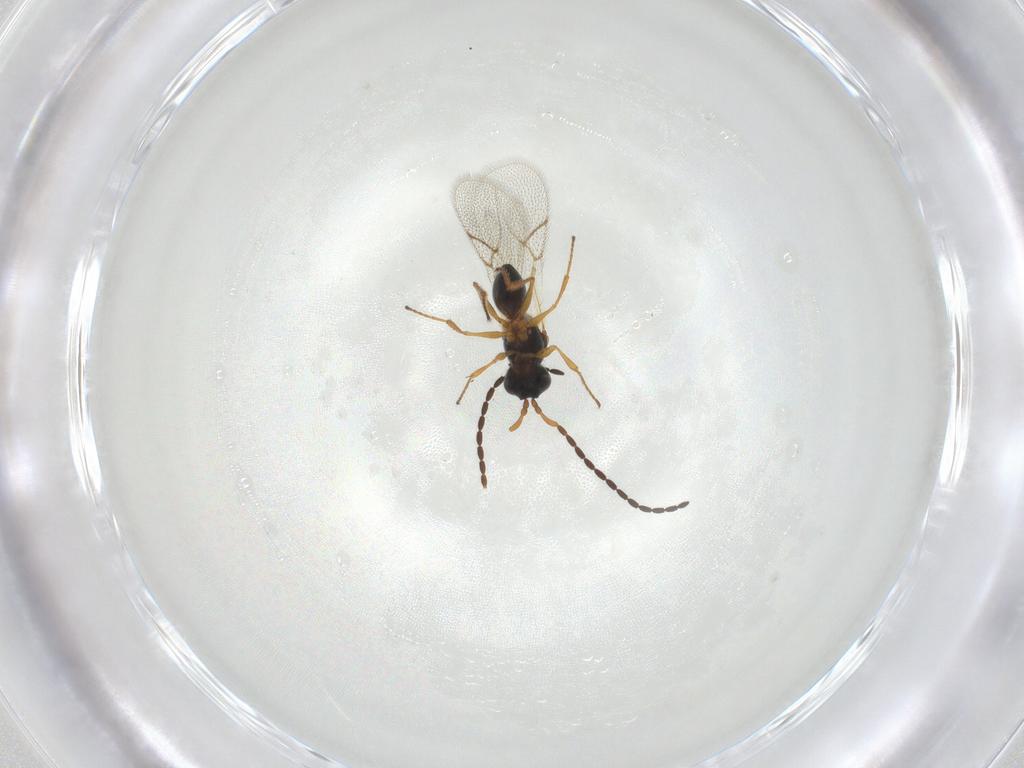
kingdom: Animalia
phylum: Arthropoda
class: Insecta
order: Hymenoptera
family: Figitidae
